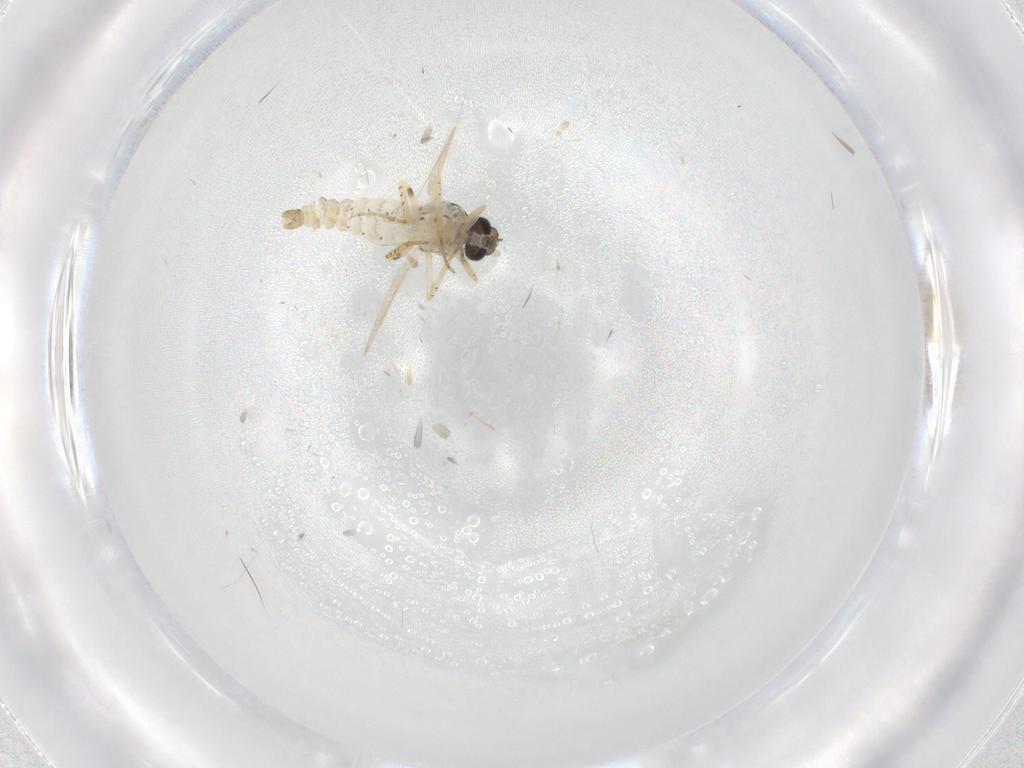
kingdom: Animalia
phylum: Arthropoda
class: Insecta
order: Diptera
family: Ceratopogonidae
